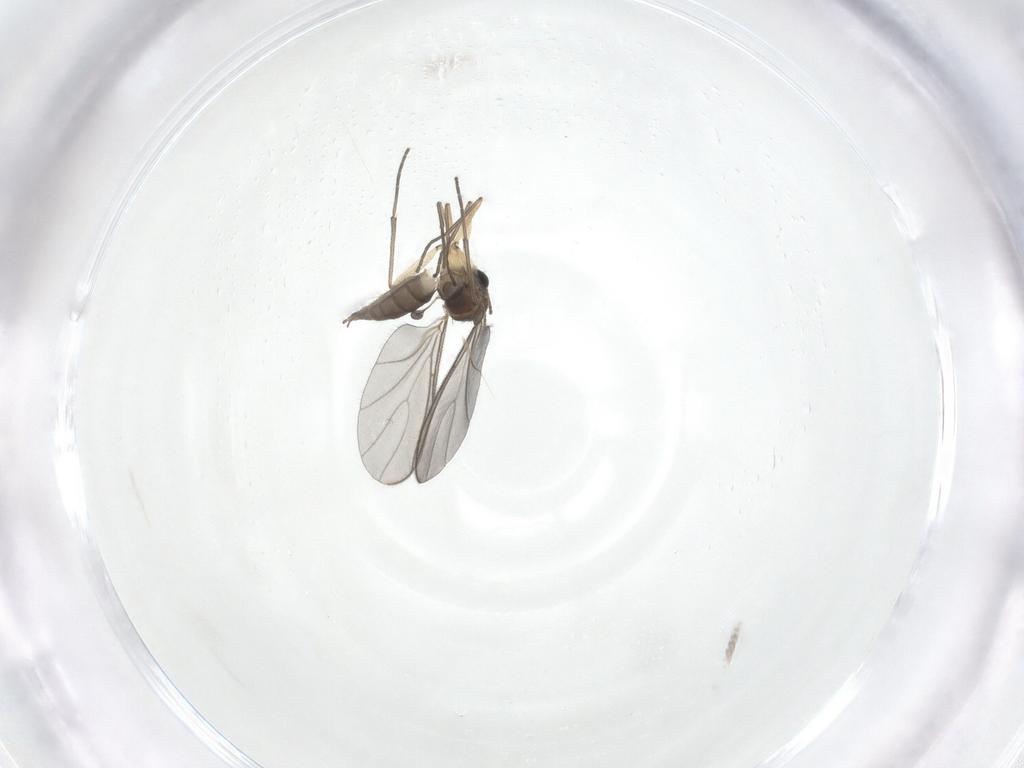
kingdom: Animalia
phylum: Arthropoda
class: Insecta
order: Diptera
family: Sciaridae
